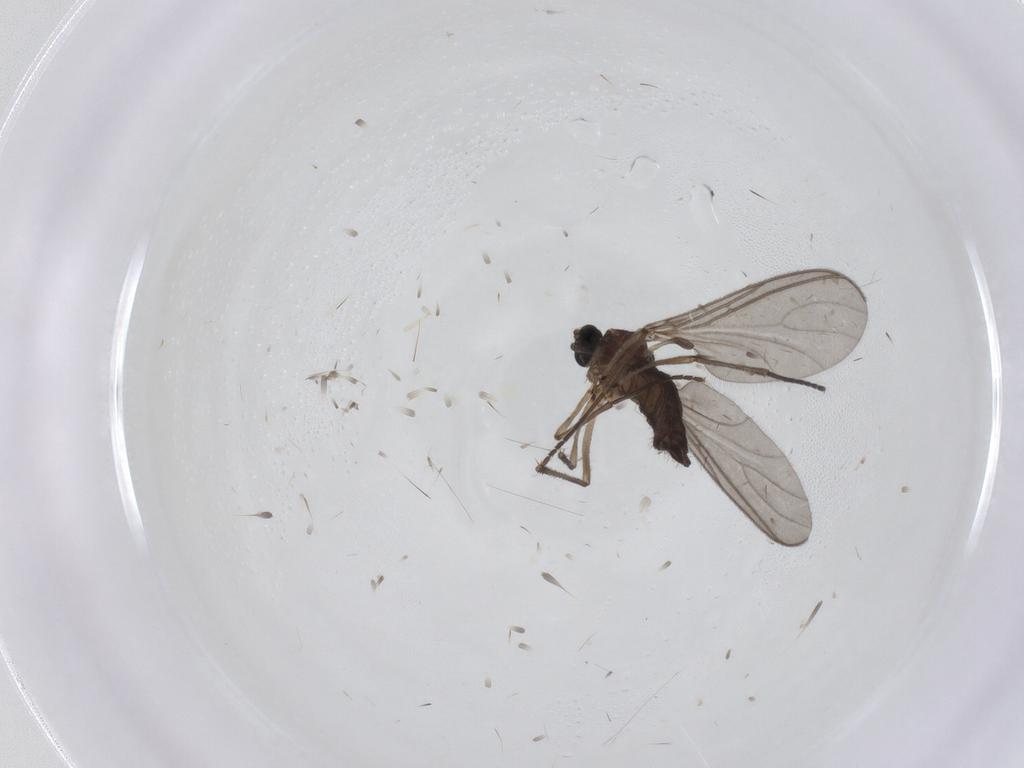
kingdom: Animalia
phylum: Arthropoda
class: Insecta
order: Diptera
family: Sciaridae
